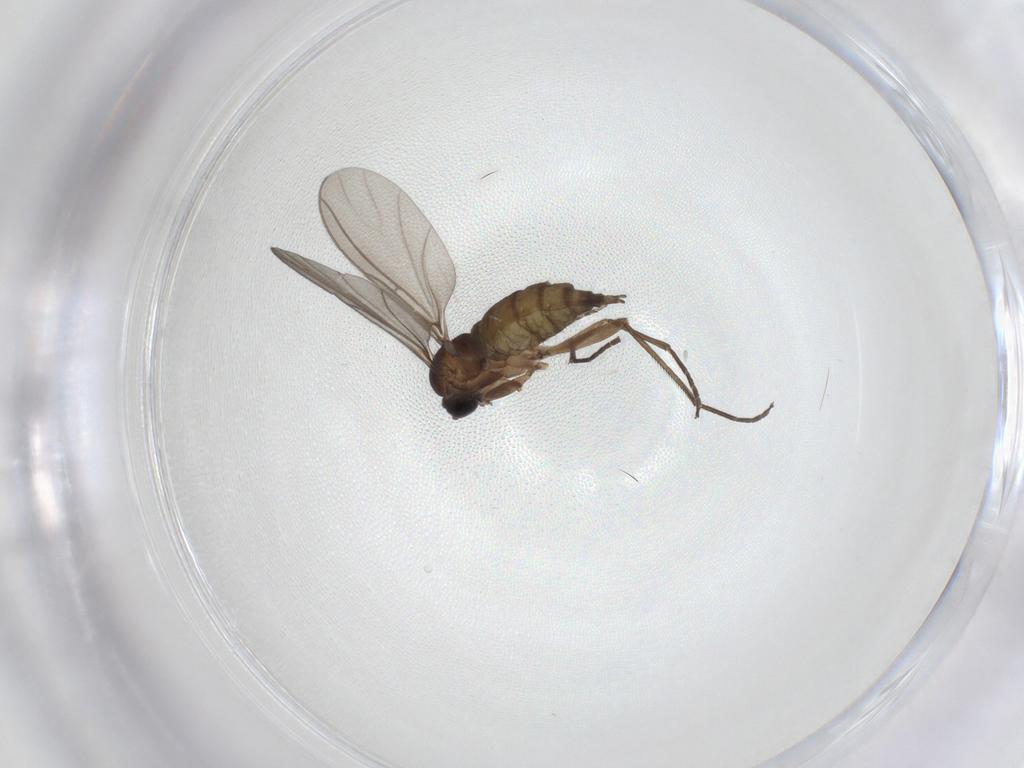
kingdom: Animalia
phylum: Arthropoda
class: Insecta
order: Diptera
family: Sciaridae
